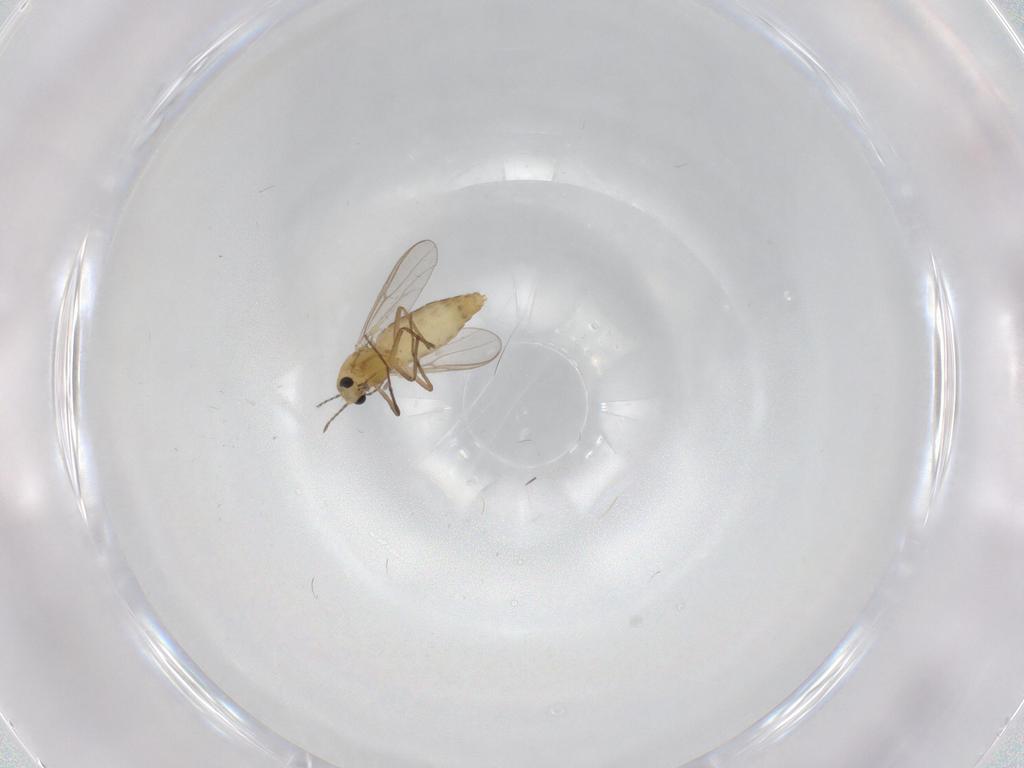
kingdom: Animalia
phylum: Arthropoda
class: Insecta
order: Diptera
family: Chironomidae
